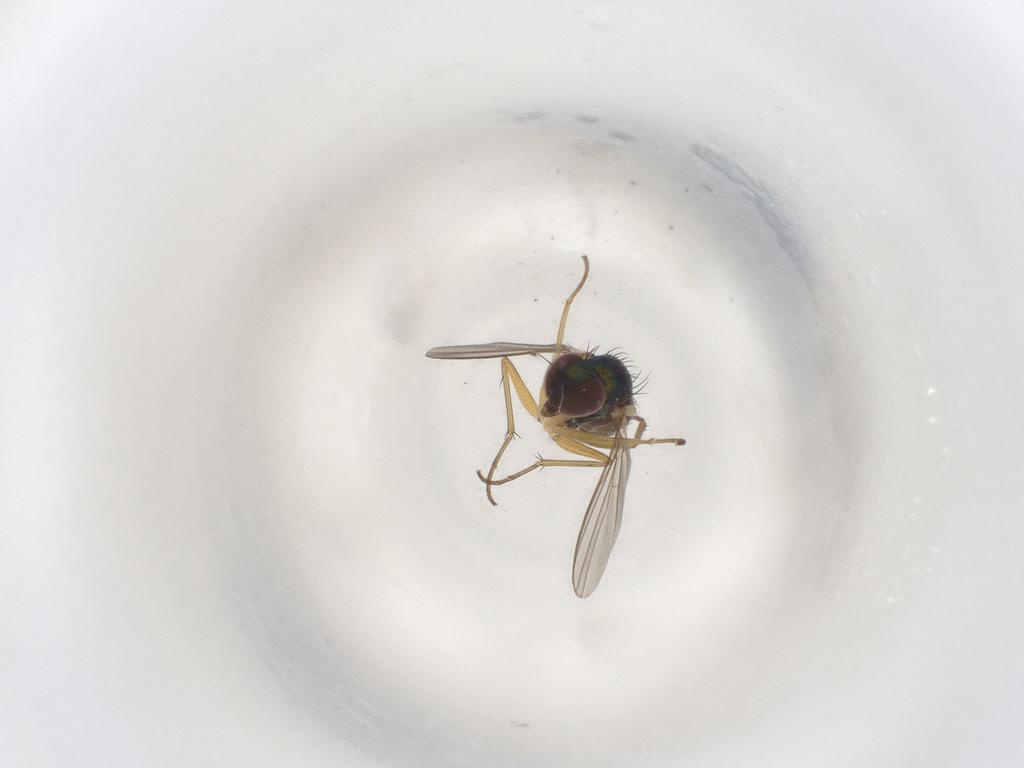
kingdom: Animalia
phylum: Arthropoda
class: Insecta
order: Diptera
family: Dolichopodidae
